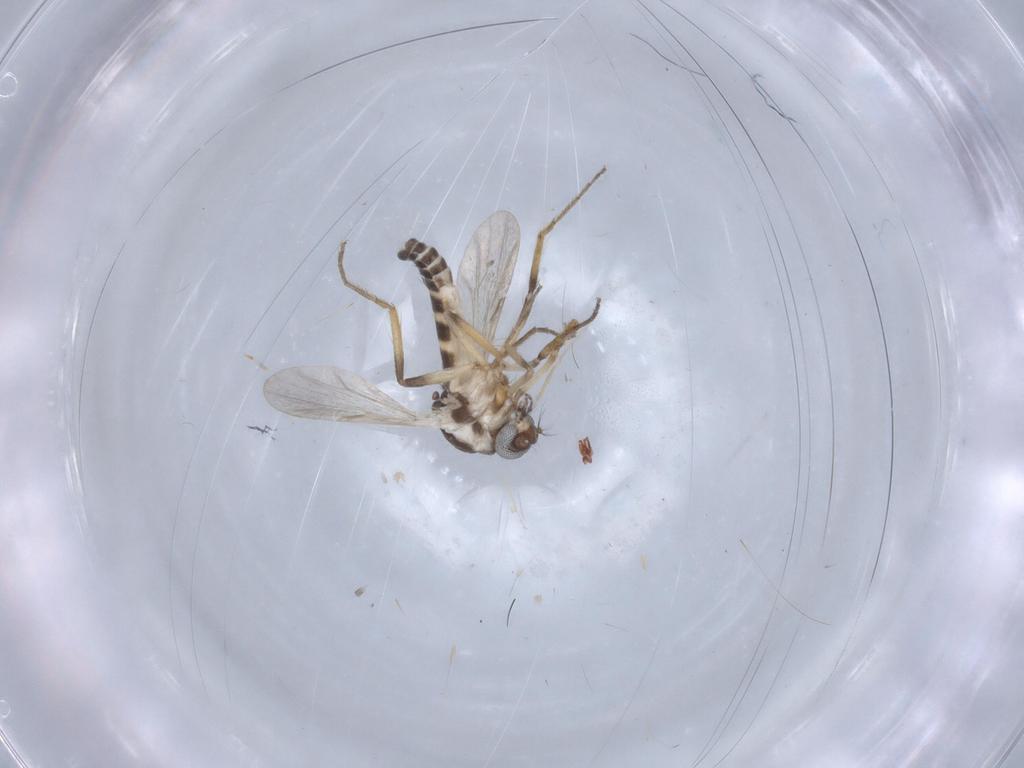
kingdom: Animalia
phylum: Arthropoda
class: Insecta
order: Diptera
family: Ceratopogonidae
